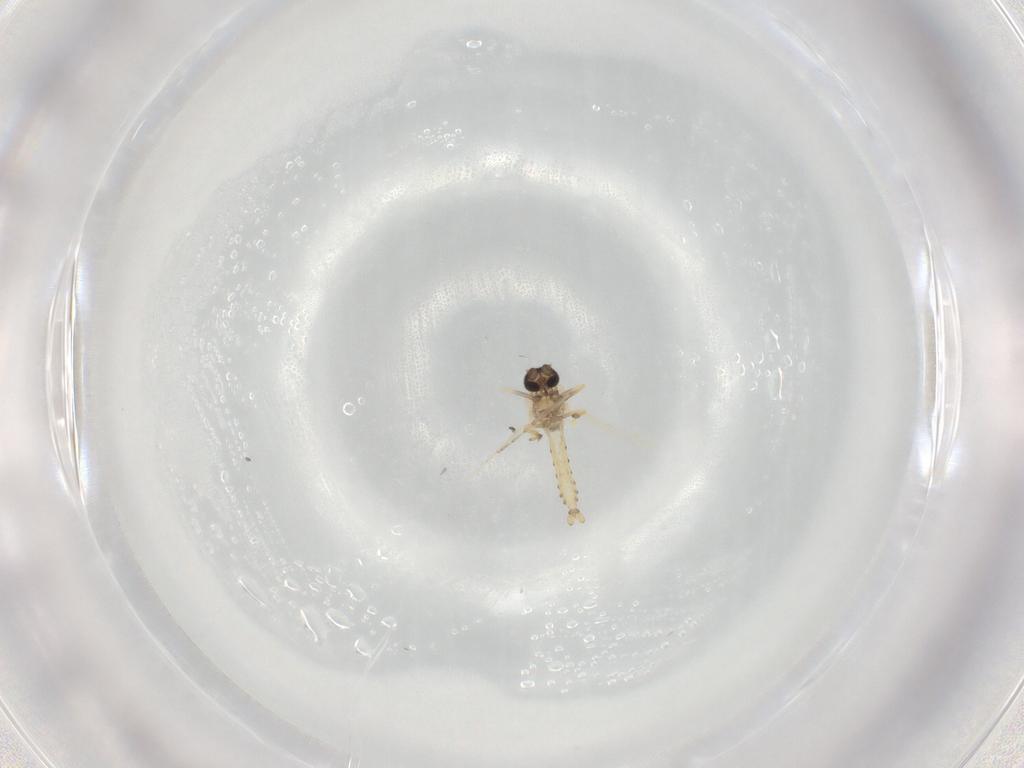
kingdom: Animalia
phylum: Arthropoda
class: Insecta
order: Diptera
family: Ceratopogonidae
